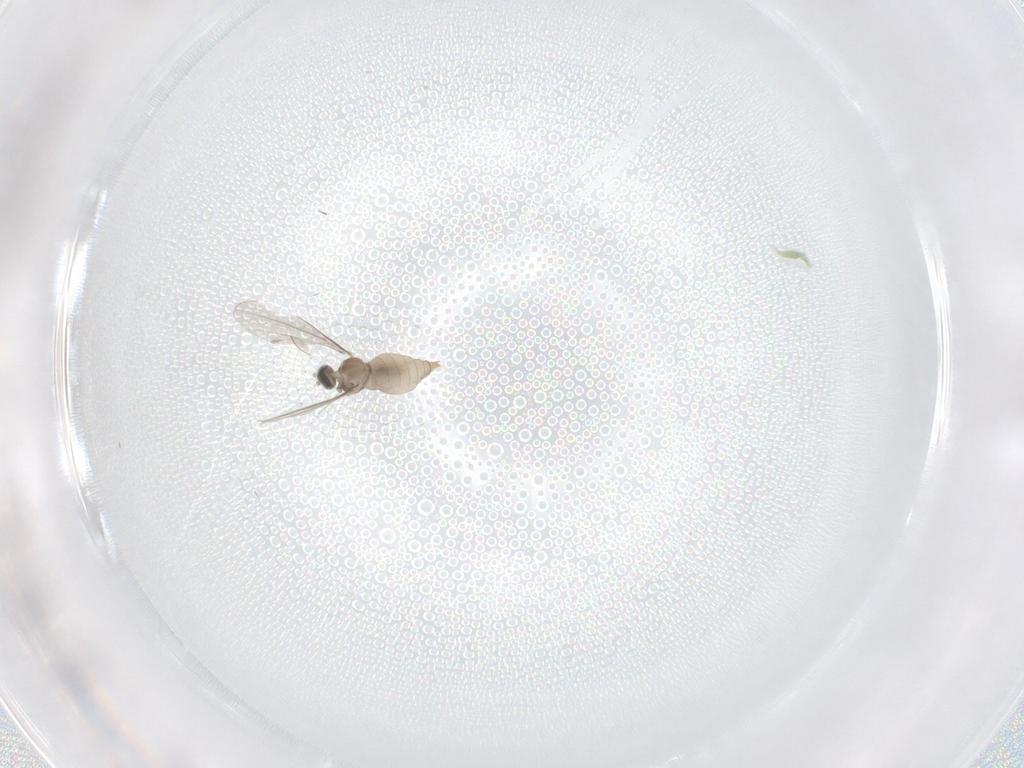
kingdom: Animalia
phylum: Arthropoda
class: Insecta
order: Diptera
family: Cecidomyiidae
